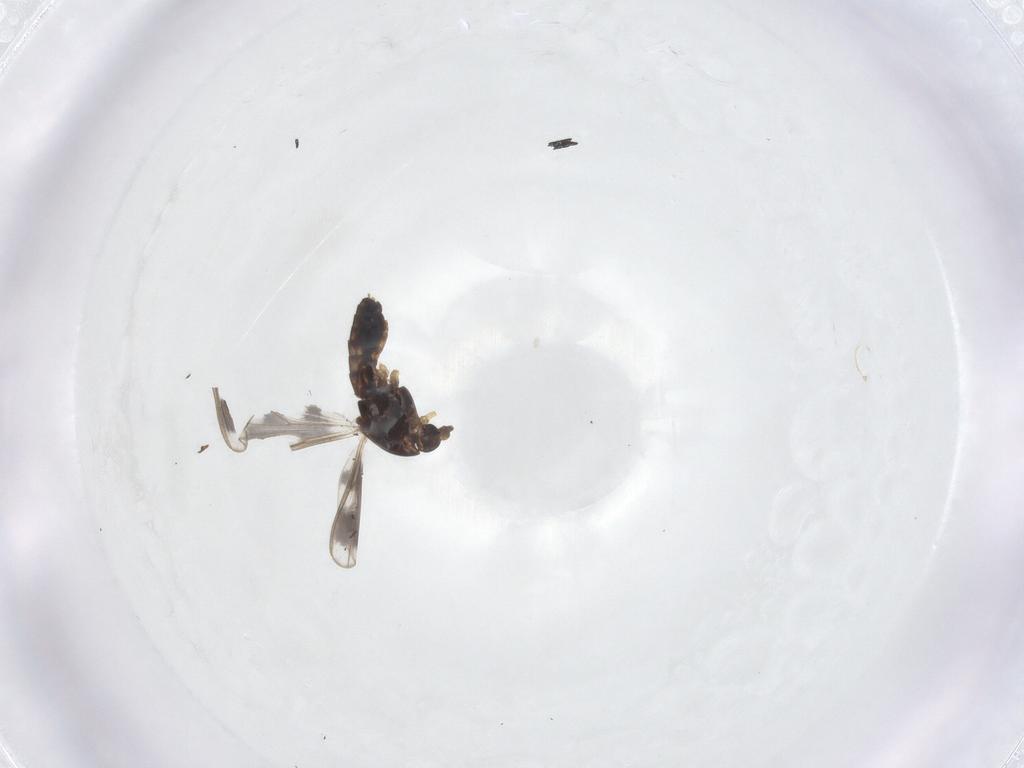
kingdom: Animalia
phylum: Arthropoda
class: Insecta
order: Diptera
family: Chironomidae
